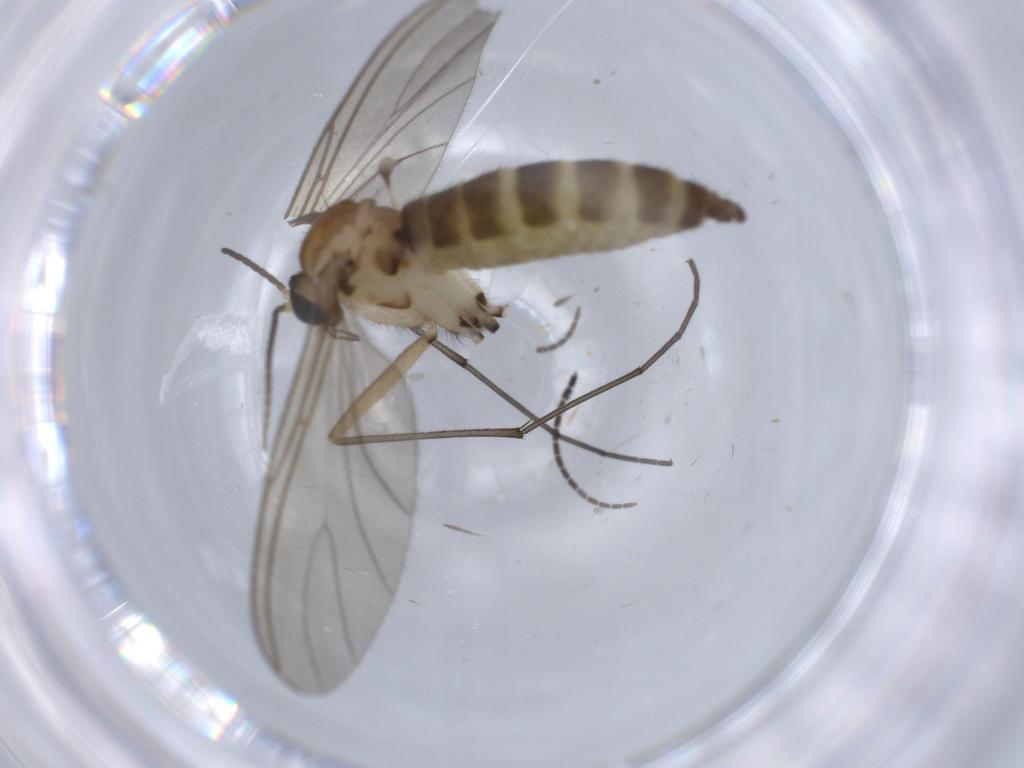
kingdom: Animalia
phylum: Arthropoda
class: Insecta
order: Diptera
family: Sciaridae
